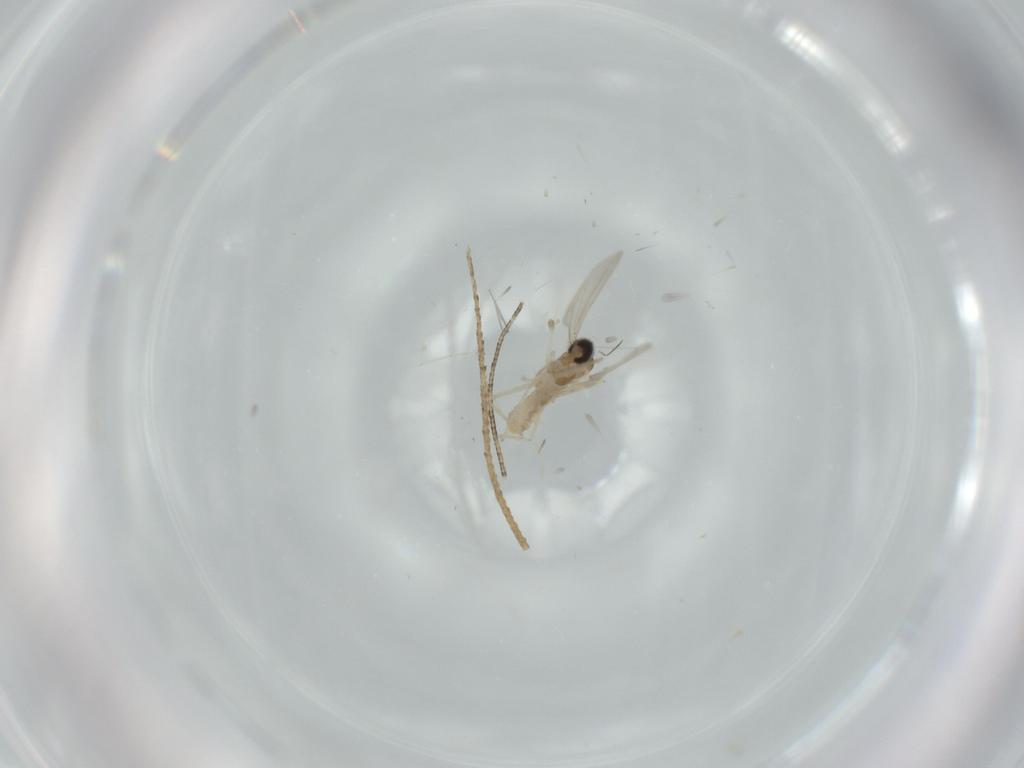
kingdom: Animalia
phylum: Arthropoda
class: Insecta
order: Diptera
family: Cecidomyiidae
